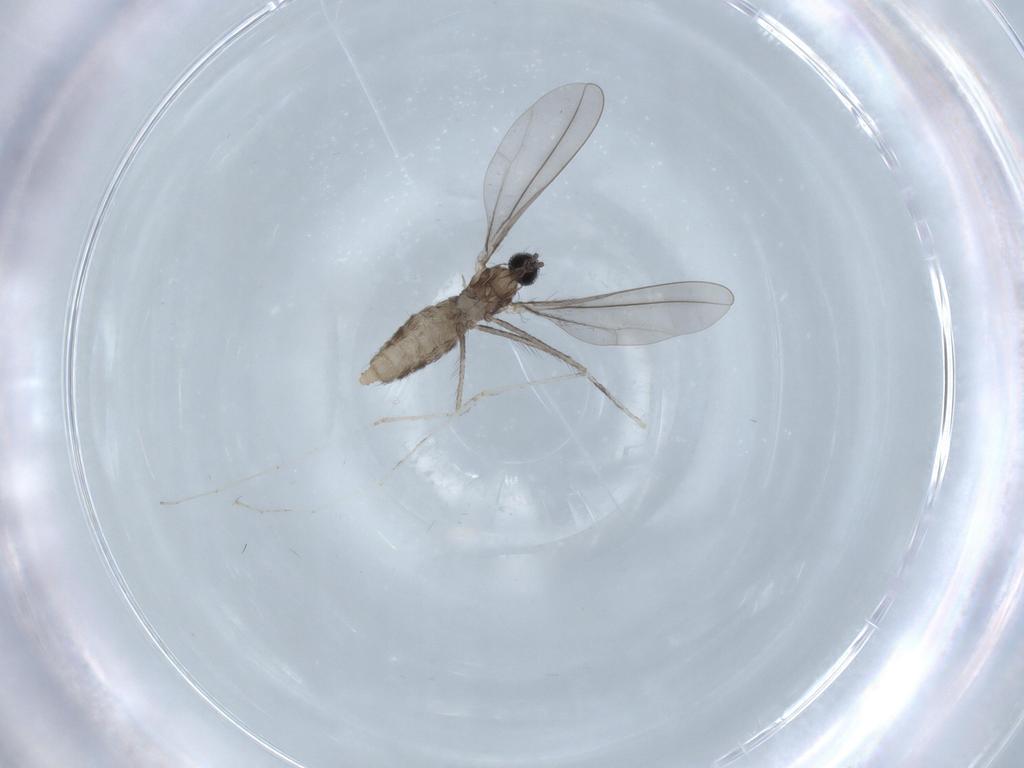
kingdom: Animalia
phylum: Arthropoda
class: Insecta
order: Diptera
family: Cecidomyiidae
